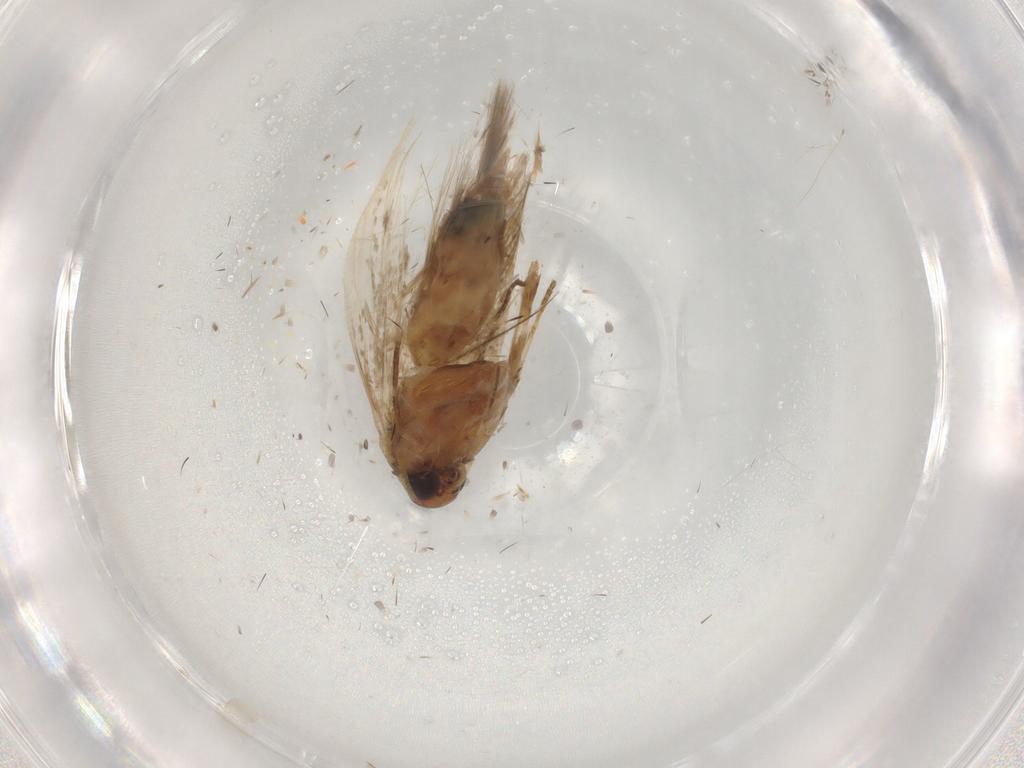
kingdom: Animalia
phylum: Arthropoda
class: Insecta
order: Lepidoptera
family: Cosmopterigidae
